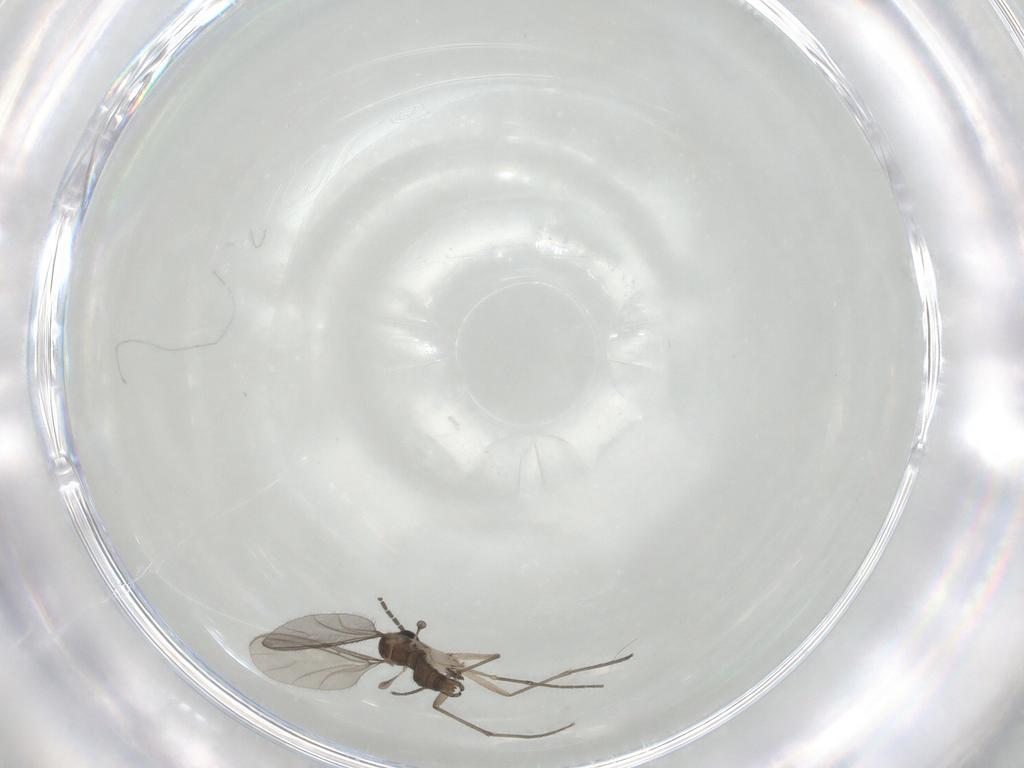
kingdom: Animalia
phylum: Arthropoda
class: Insecta
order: Diptera
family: Sciaridae
